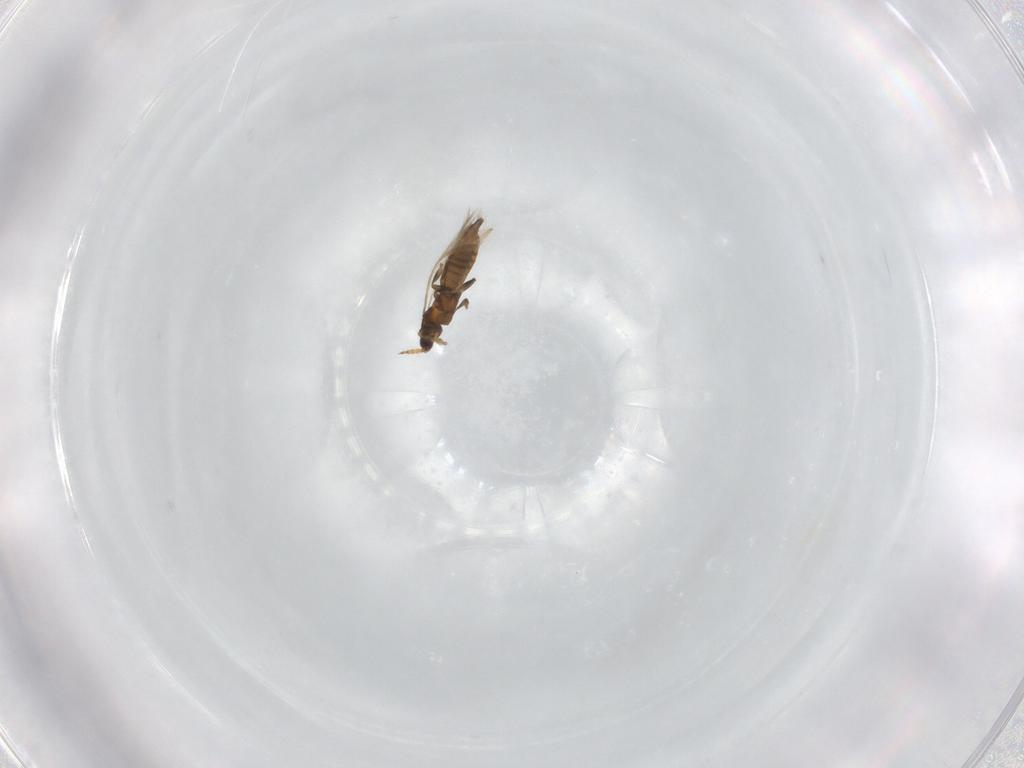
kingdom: Animalia
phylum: Arthropoda
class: Insecta
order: Thysanoptera
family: Thripidae
